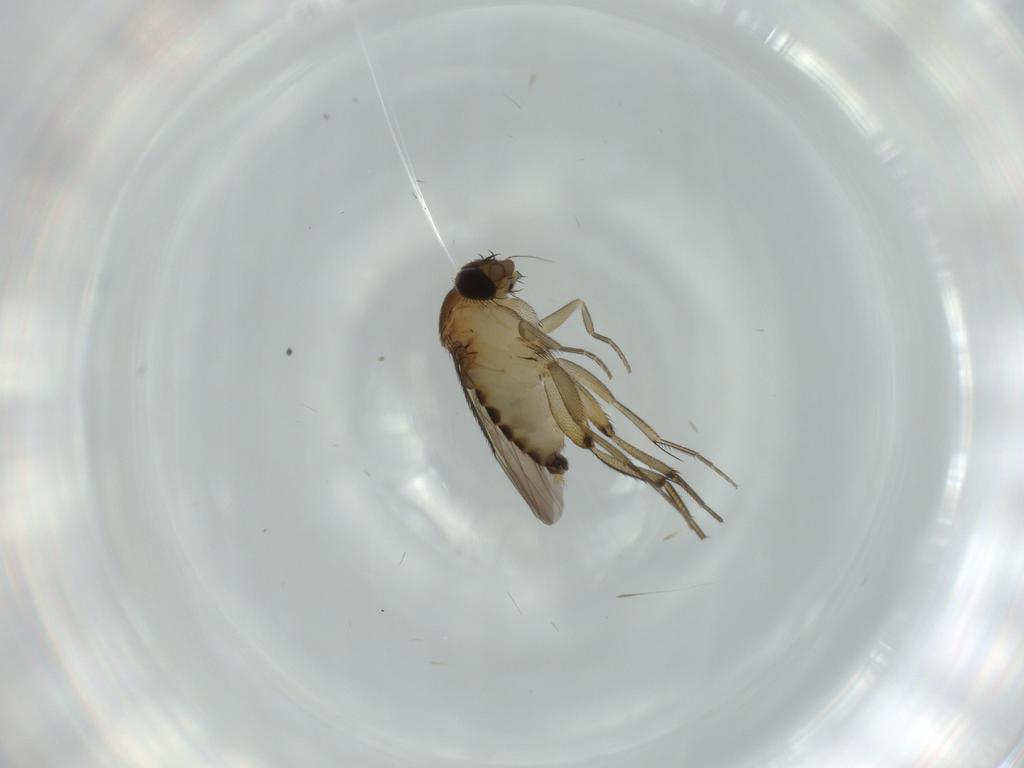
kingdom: Animalia
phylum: Arthropoda
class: Insecta
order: Diptera
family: Phoridae
